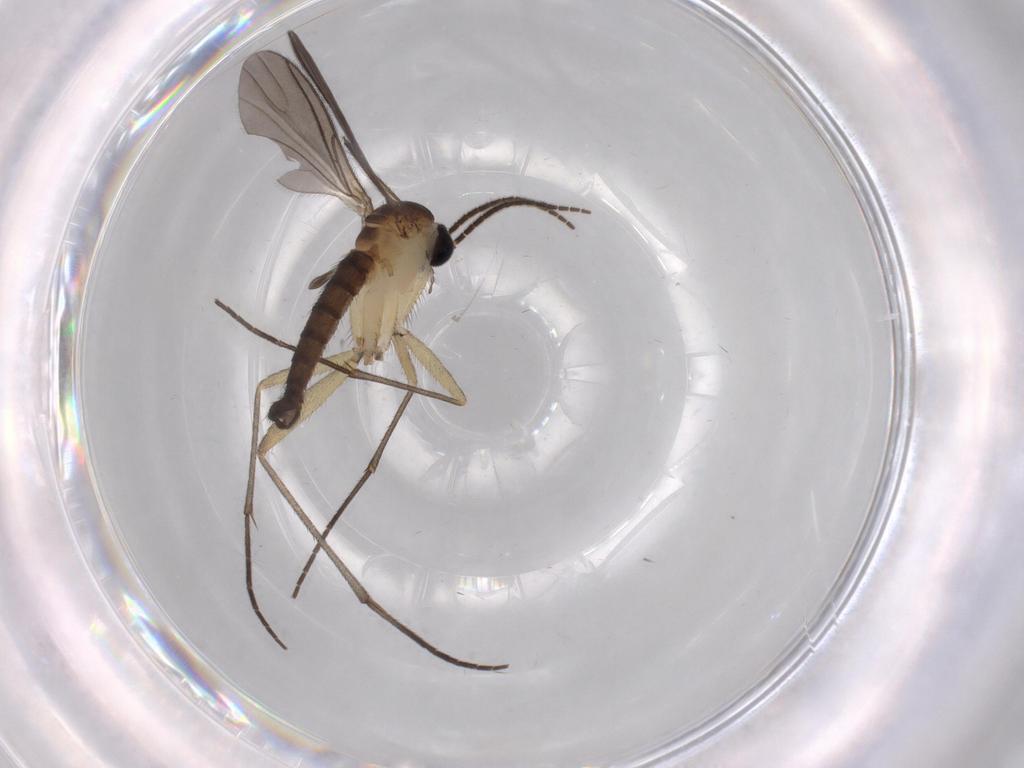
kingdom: Animalia
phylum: Arthropoda
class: Insecta
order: Diptera
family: Sciaridae
